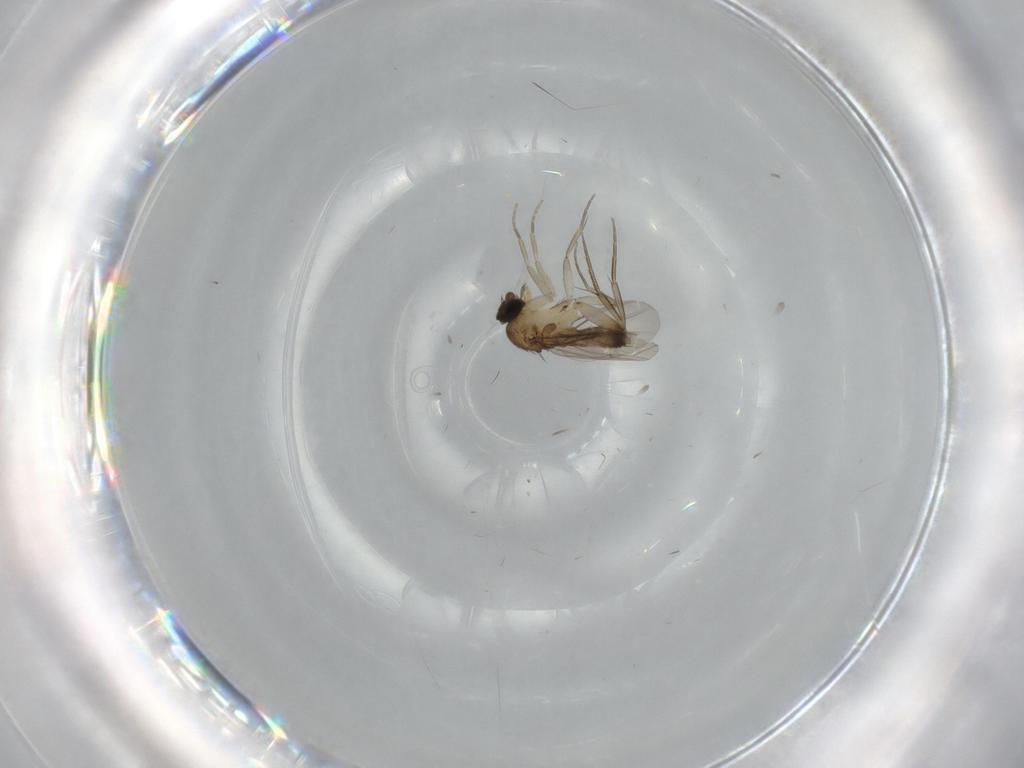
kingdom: Animalia
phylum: Arthropoda
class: Insecta
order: Diptera
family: Phoridae
